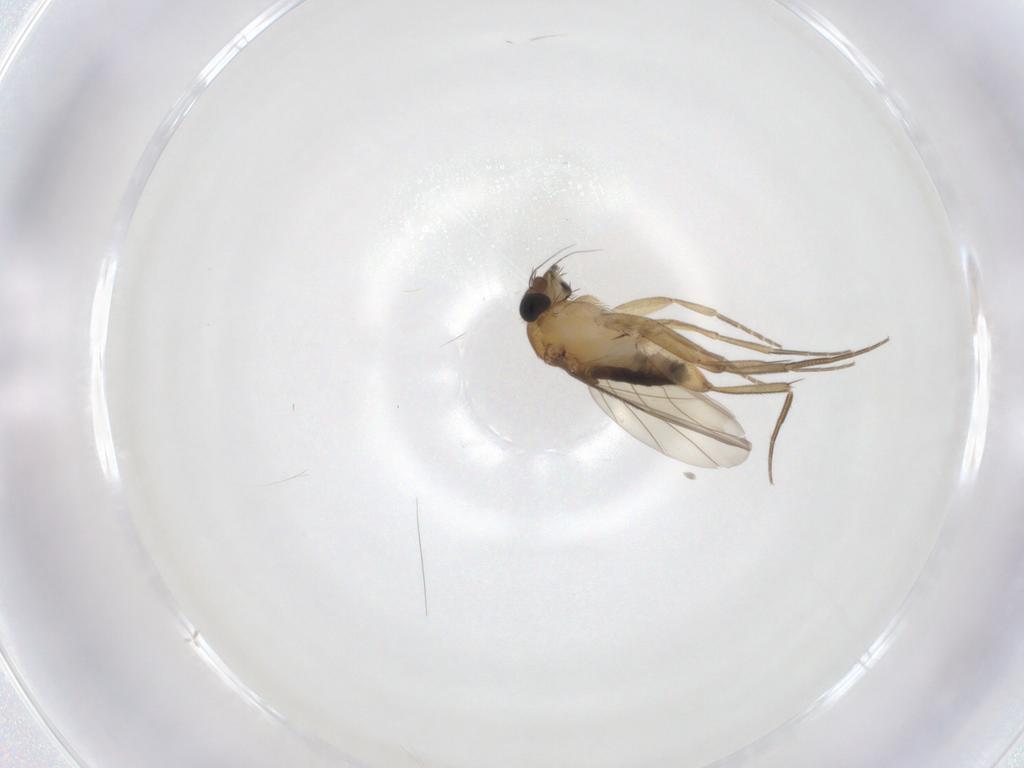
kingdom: Animalia
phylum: Arthropoda
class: Insecta
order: Diptera
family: Phoridae
